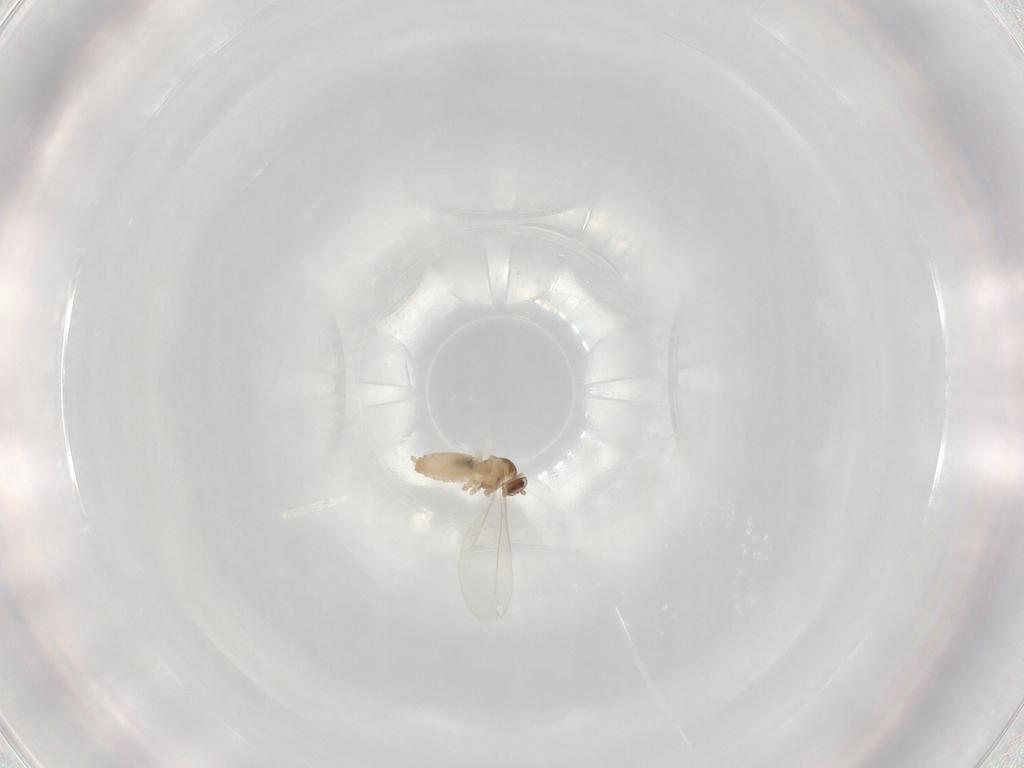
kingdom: Animalia
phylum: Arthropoda
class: Insecta
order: Diptera
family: Cecidomyiidae
